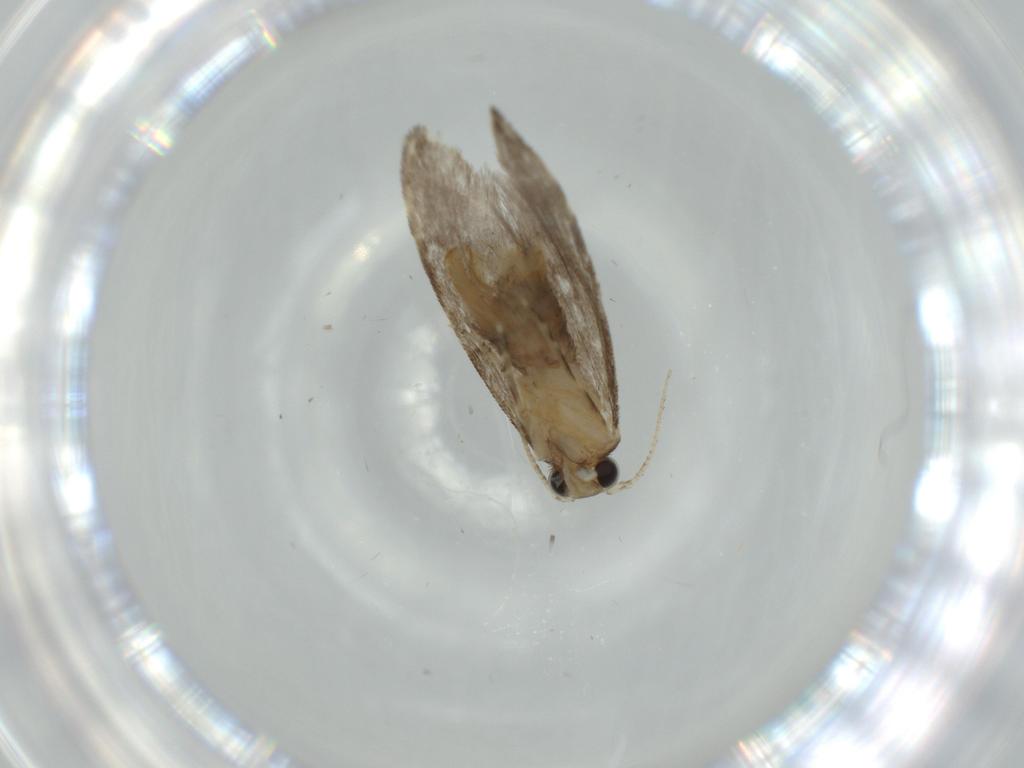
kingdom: Animalia
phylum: Arthropoda
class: Insecta
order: Lepidoptera
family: Tineidae
